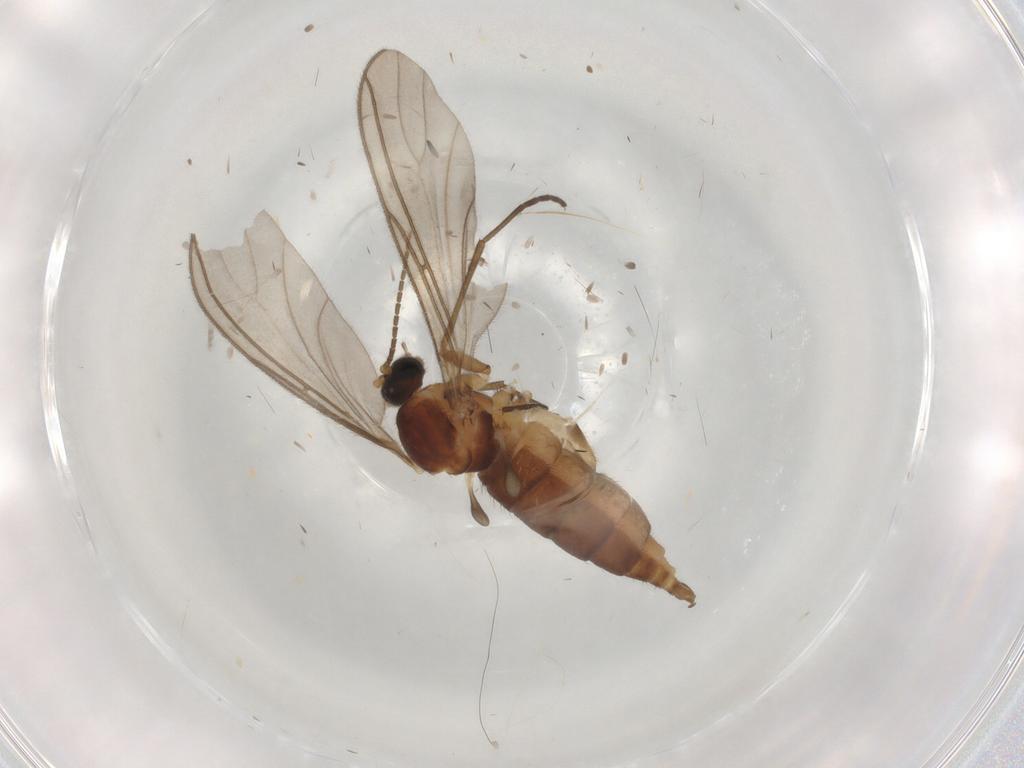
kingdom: Animalia
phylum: Arthropoda
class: Insecta
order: Diptera
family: Sciaridae
